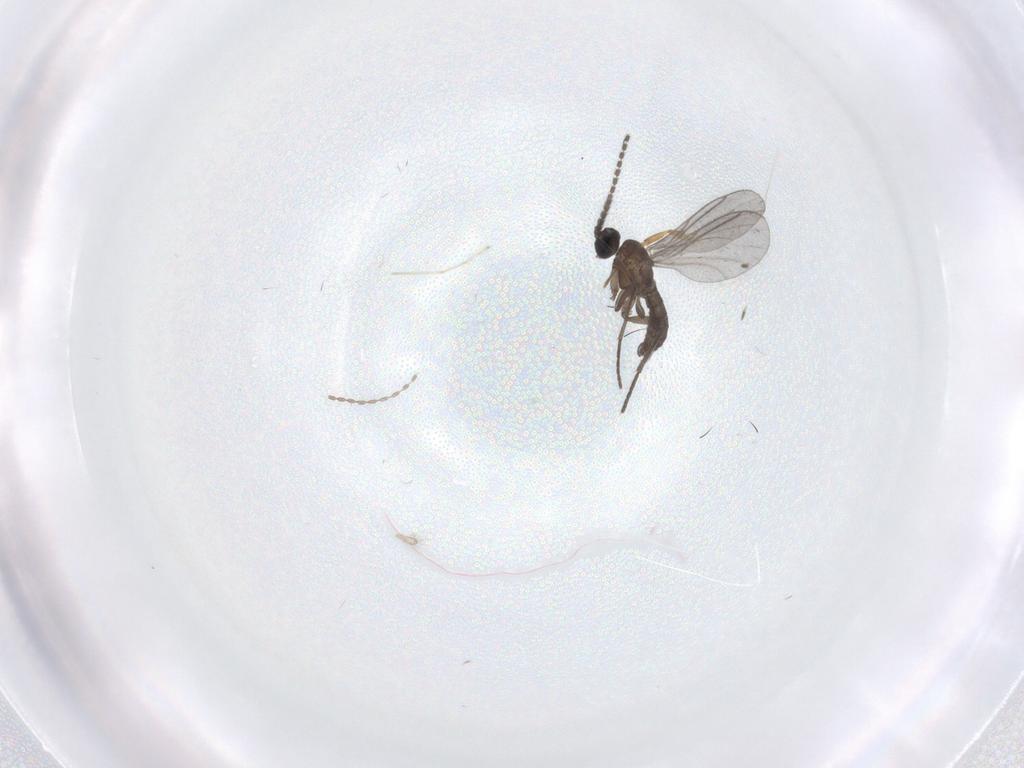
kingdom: Animalia
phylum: Arthropoda
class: Insecta
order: Diptera
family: Cecidomyiidae
